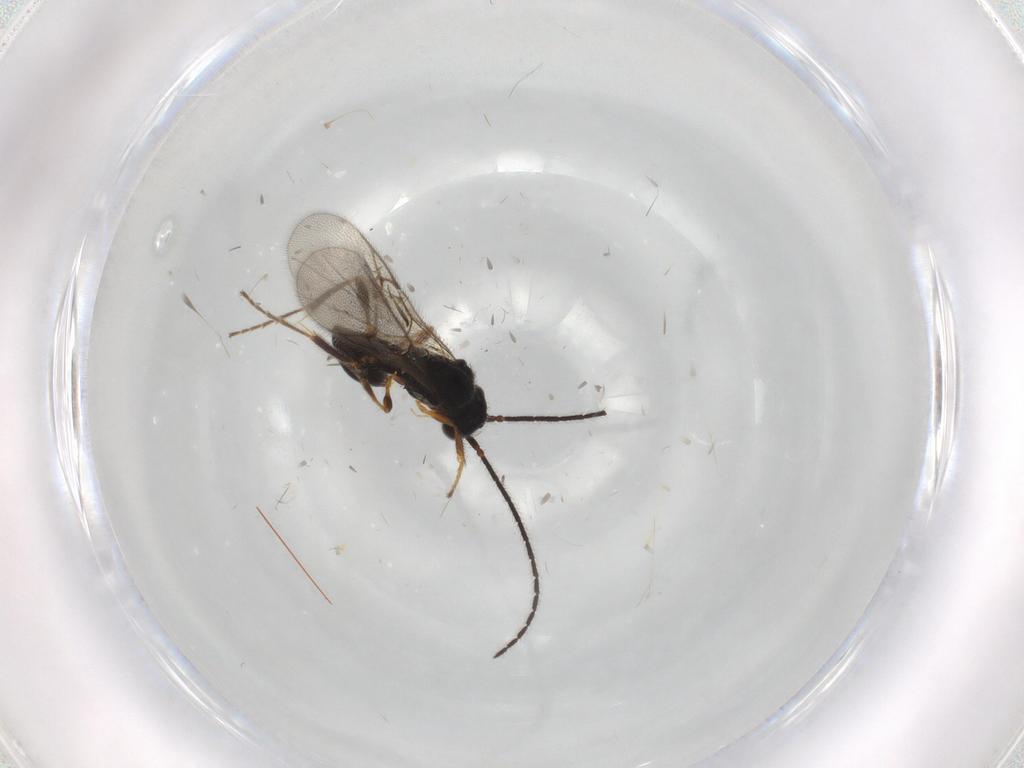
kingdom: Animalia
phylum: Arthropoda
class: Insecta
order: Hymenoptera
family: Diapriidae
